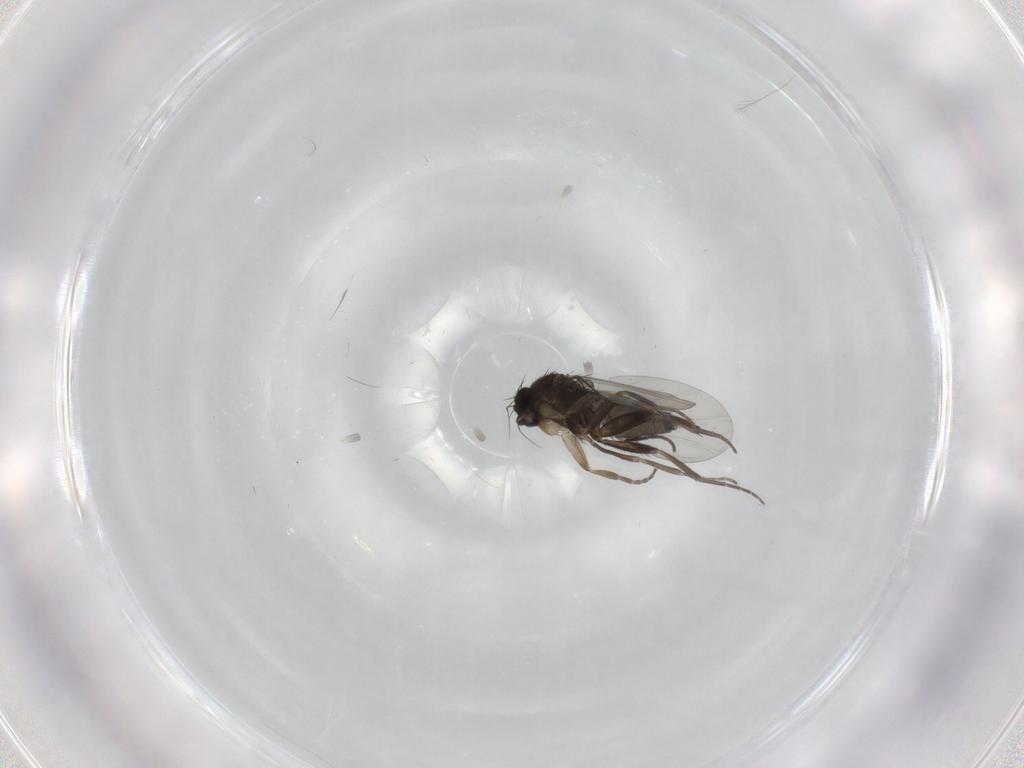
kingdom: Animalia
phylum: Arthropoda
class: Insecta
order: Diptera
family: Phoridae
